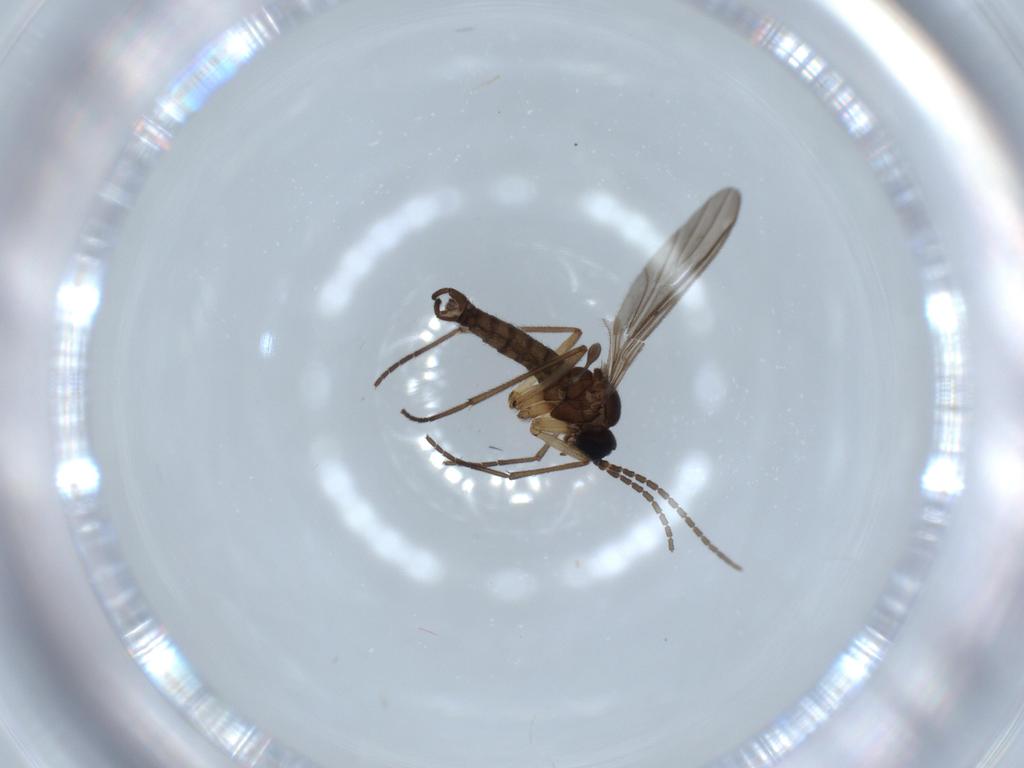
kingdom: Animalia
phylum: Arthropoda
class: Insecta
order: Diptera
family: Sciaridae
